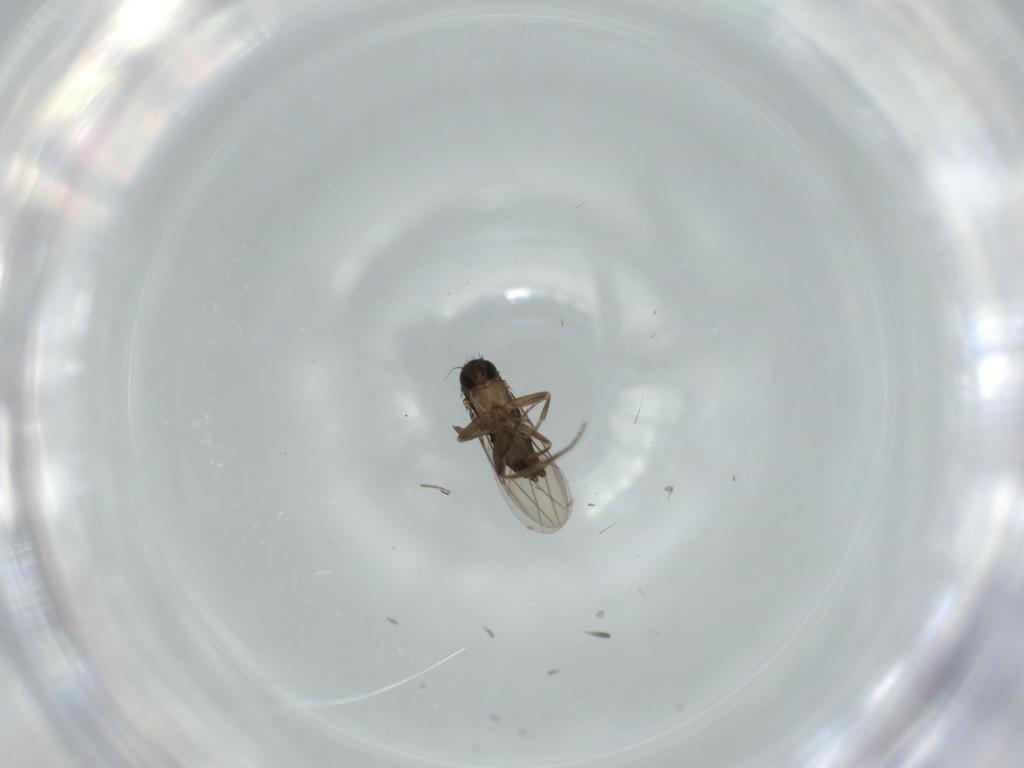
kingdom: Animalia
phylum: Arthropoda
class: Insecta
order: Diptera
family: Phoridae
